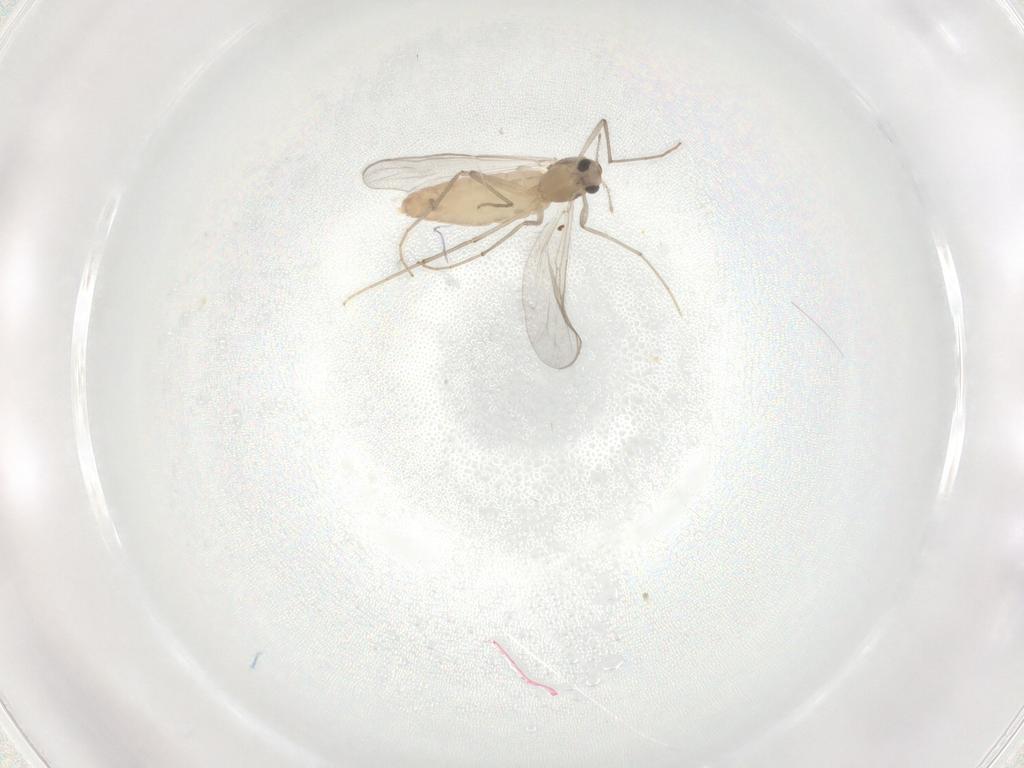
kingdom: Animalia
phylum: Arthropoda
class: Insecta
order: Diptera
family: Chironomidae
